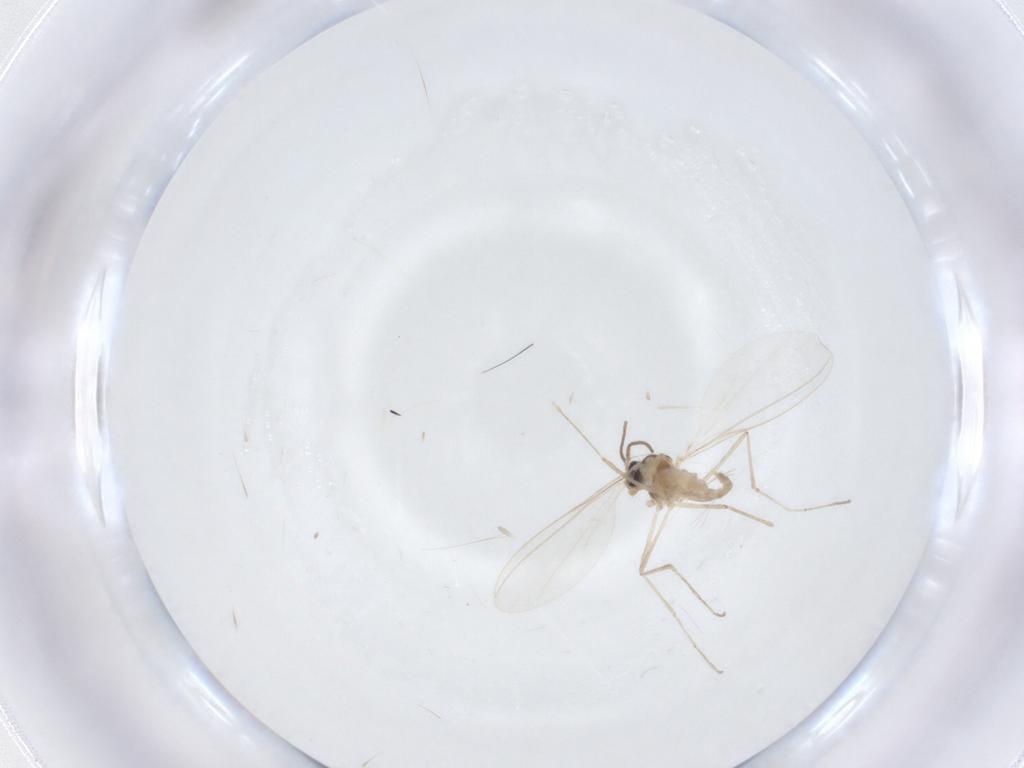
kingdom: Animalia
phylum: Arthropoda
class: Insecta
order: Diptera
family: Cecidomyiidae
